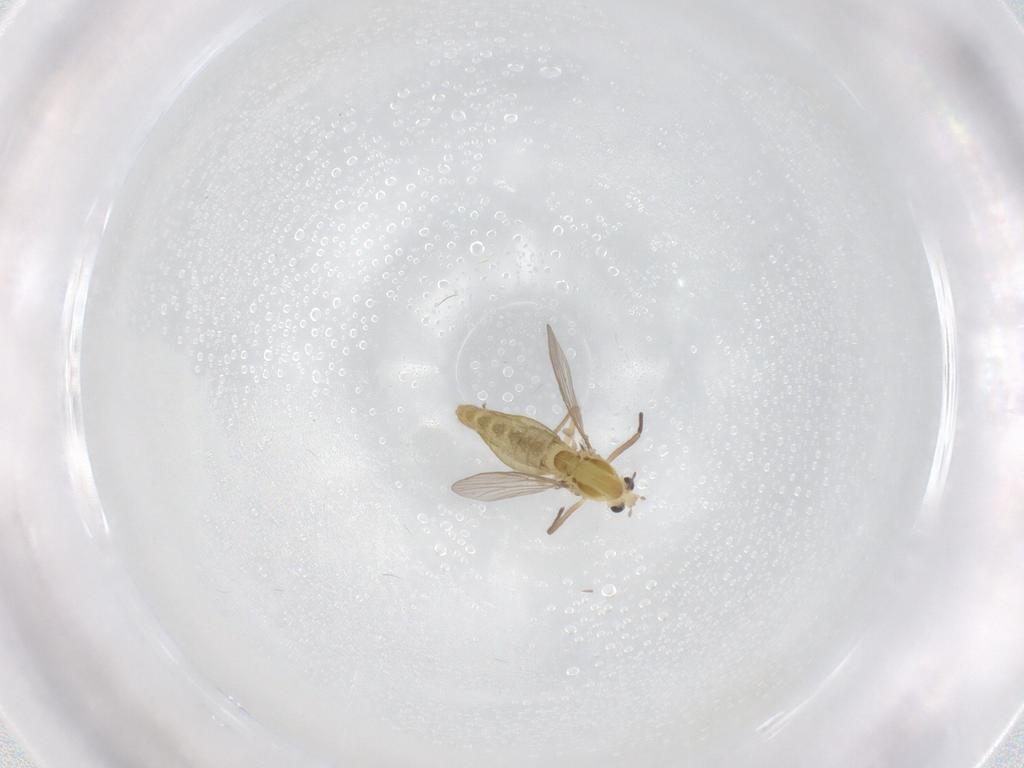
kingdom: Animalia
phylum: Arthropoda
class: Insecta
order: Diptera
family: Chironomidae
